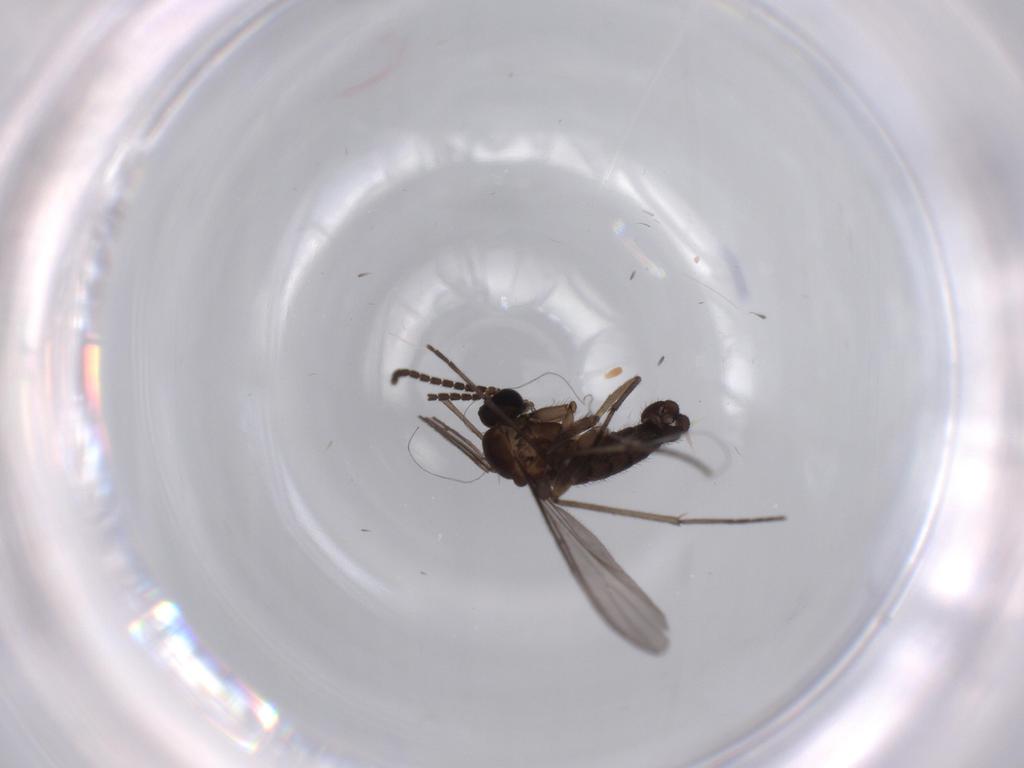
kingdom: Animalia
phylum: Arthropoda
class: Insecta
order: Diptera
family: Sciaridae
